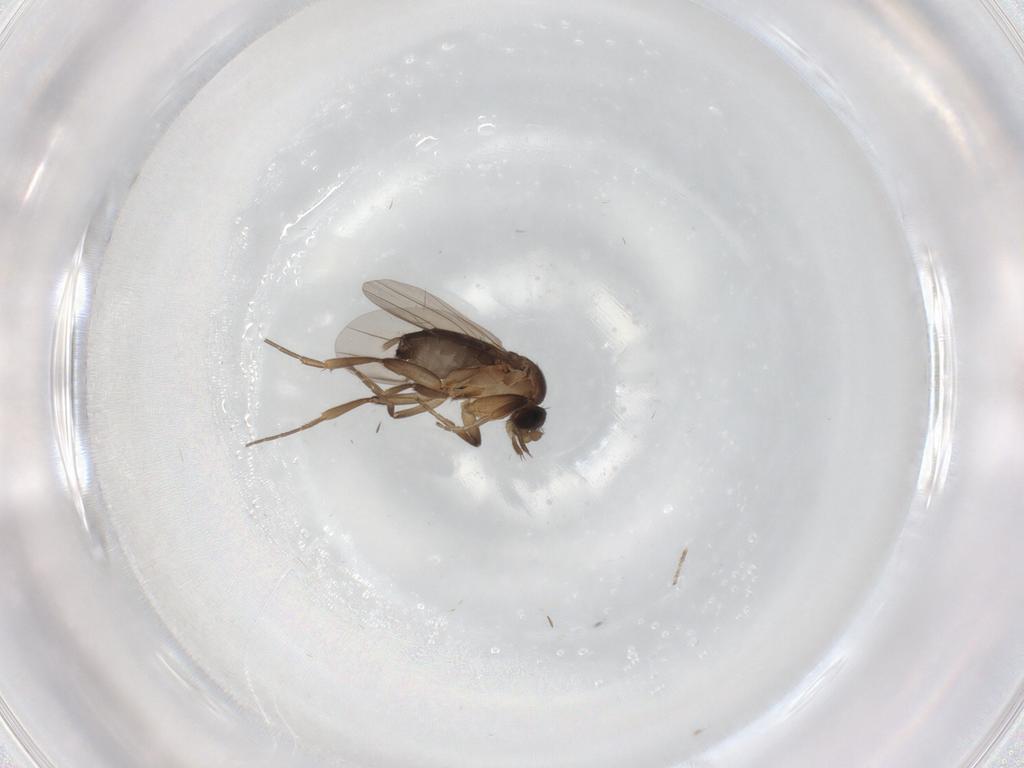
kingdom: Animalia
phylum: Arthropoda
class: Insecta
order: Diptera
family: Phoridae
